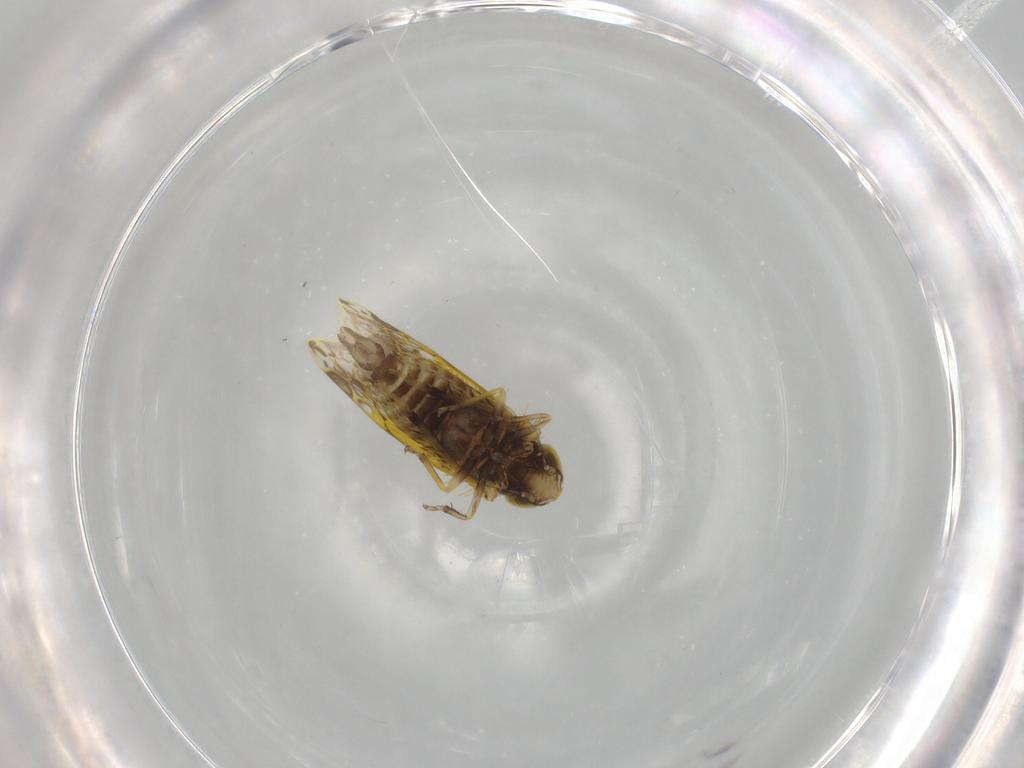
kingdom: Animalia
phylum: Arthropoda
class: Insecta
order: Hemiptera
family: Cicadellidae
